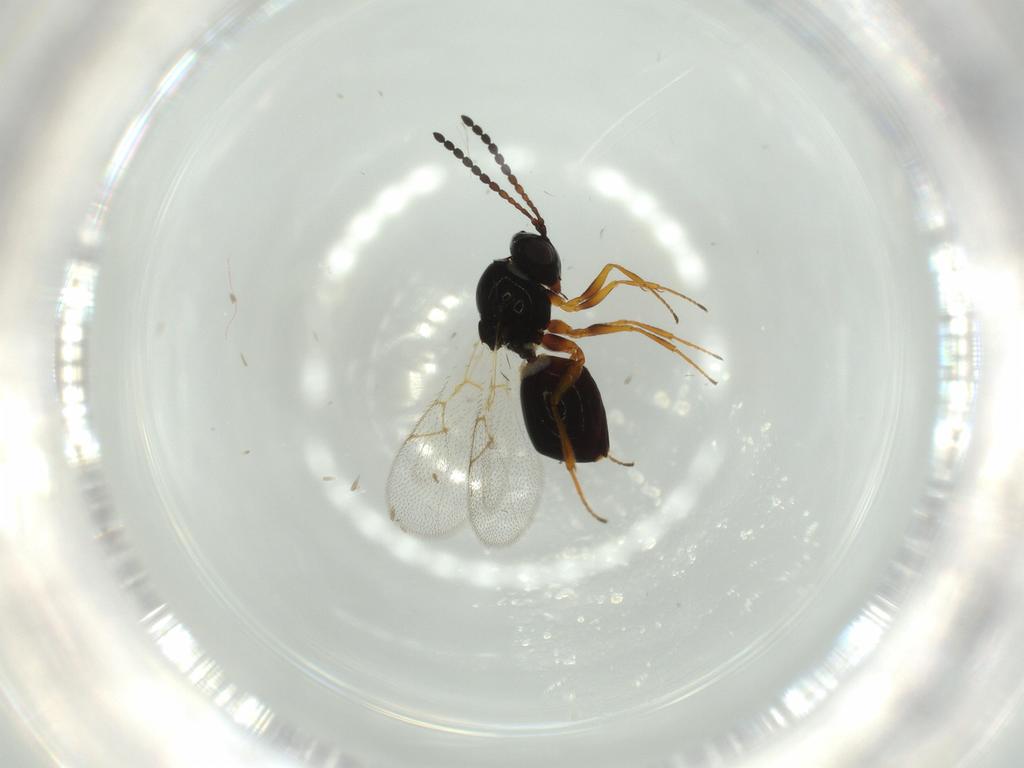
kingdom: Animalia
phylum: Arthropoda
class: Insecta
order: Hymenoptera
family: Figitidae
